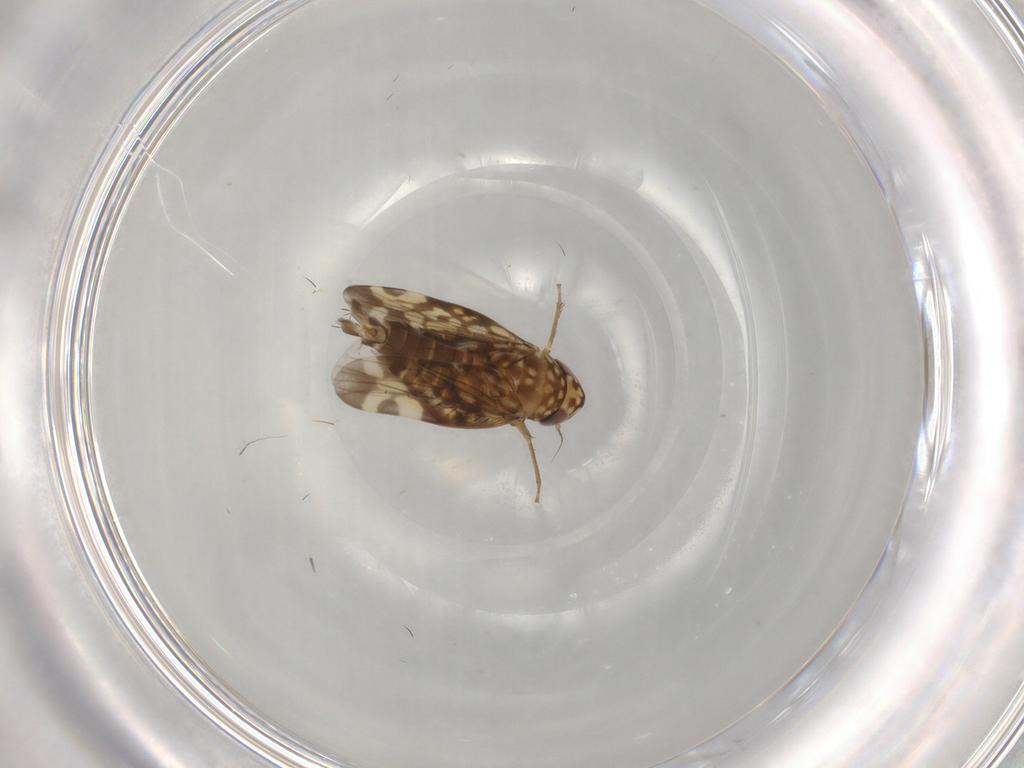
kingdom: Animalia
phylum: Arthropoda
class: Insecta
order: Hemiptera
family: Cicadellidae
